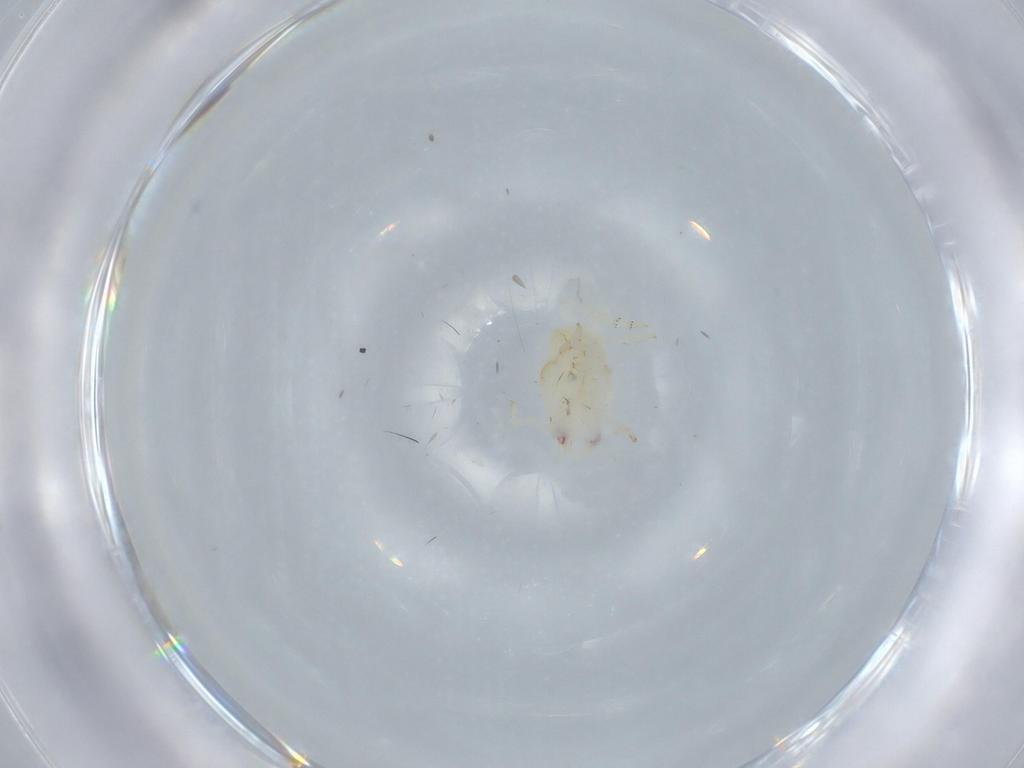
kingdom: Animalia
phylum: Arthropoda
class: Insecta
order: Hemiptera
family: Flatidae
